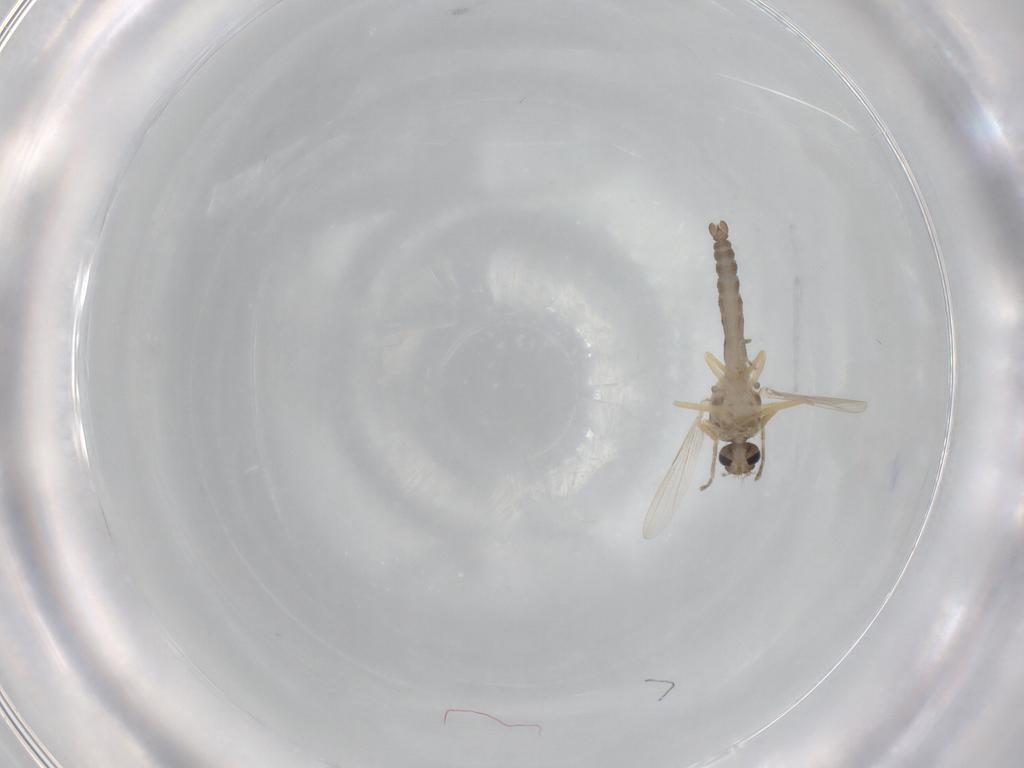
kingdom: Animalia
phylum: Arthropoda
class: Insecta
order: Diptera
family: Ceratopogonidae
